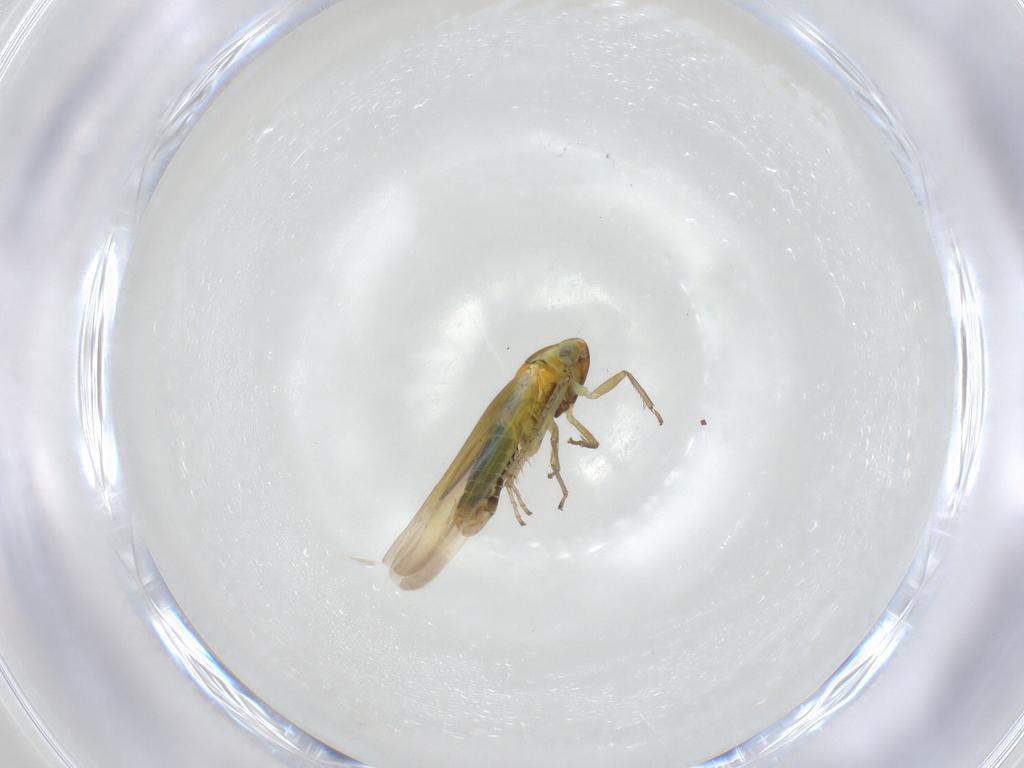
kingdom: Animalia
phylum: Arthropoda
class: Insecta
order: Hemiptera
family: Cicadellidae
